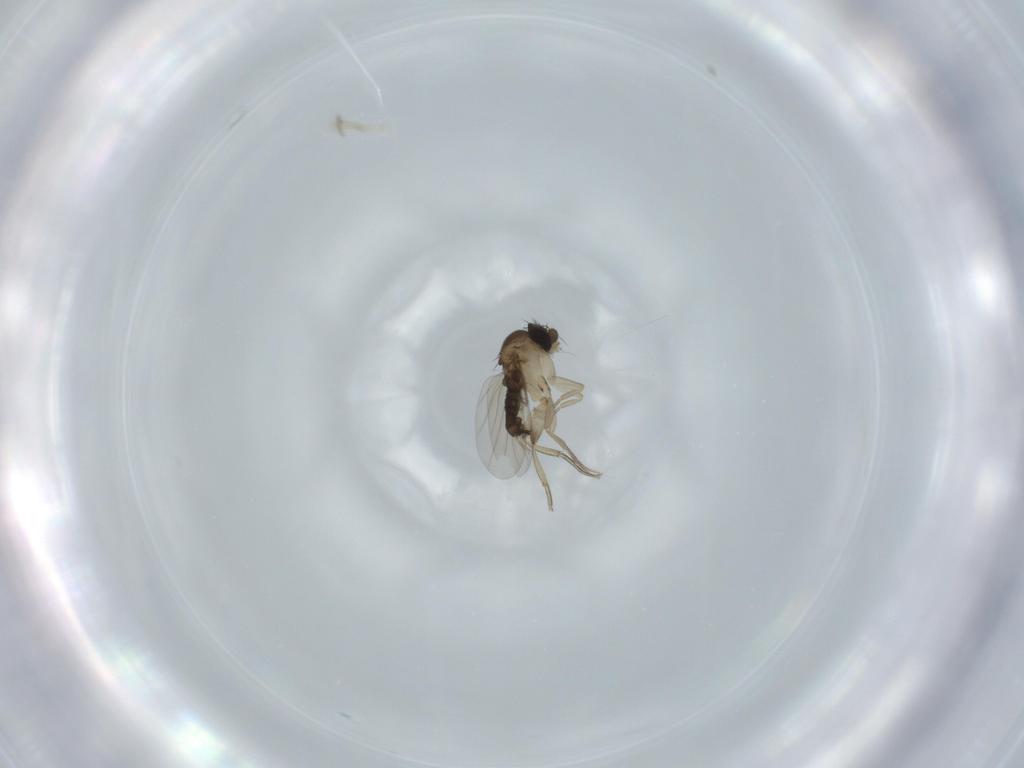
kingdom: Animalia
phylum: Arthropoda
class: Insecta
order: Diptera
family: Phoridae
